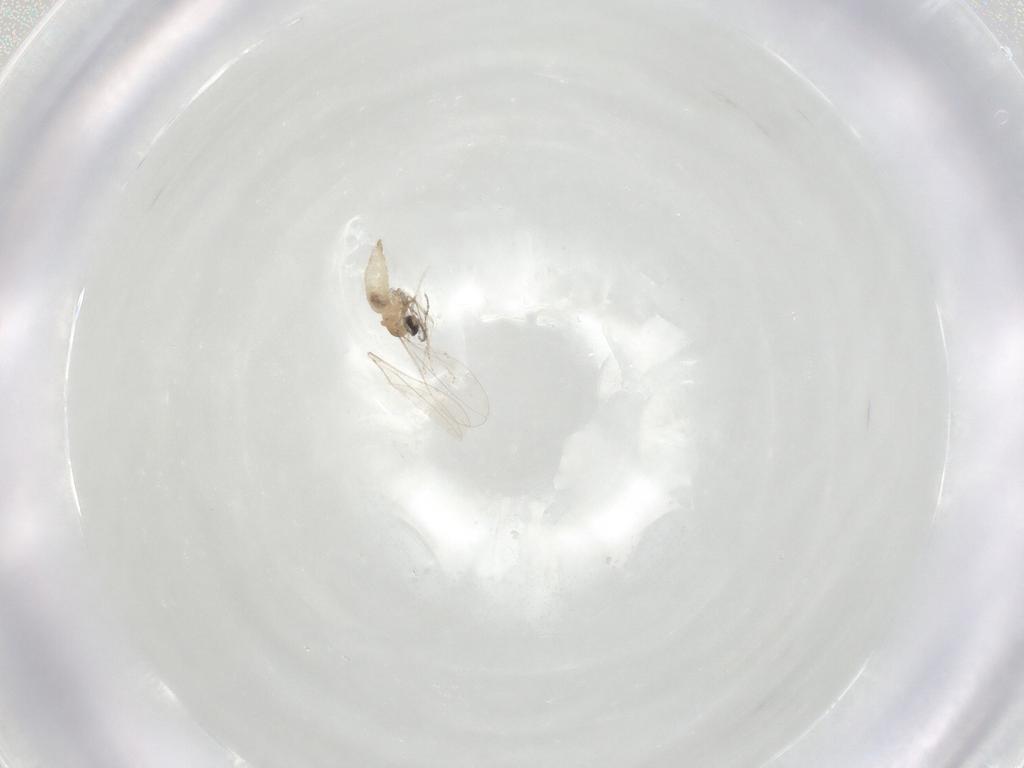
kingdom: Animalia
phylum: Arthropoda
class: Insecta
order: Diptera
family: Cecidomyiidae
